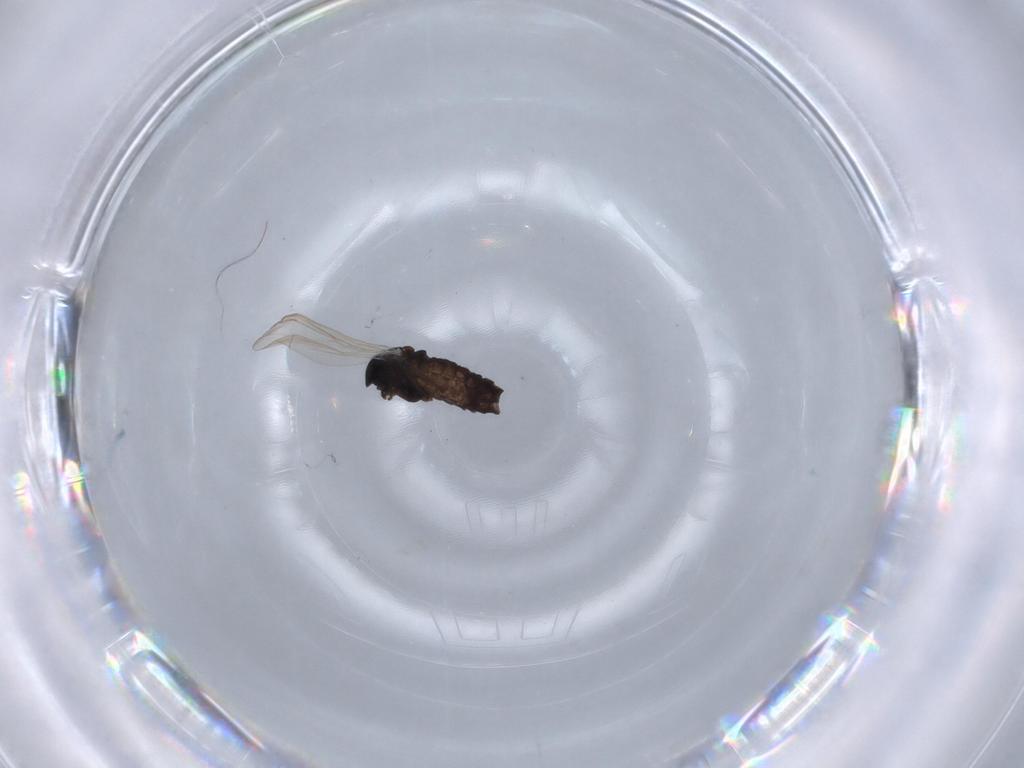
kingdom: Animalia
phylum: Arthropoda
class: Insecta
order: Diptera
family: Chironomidae
